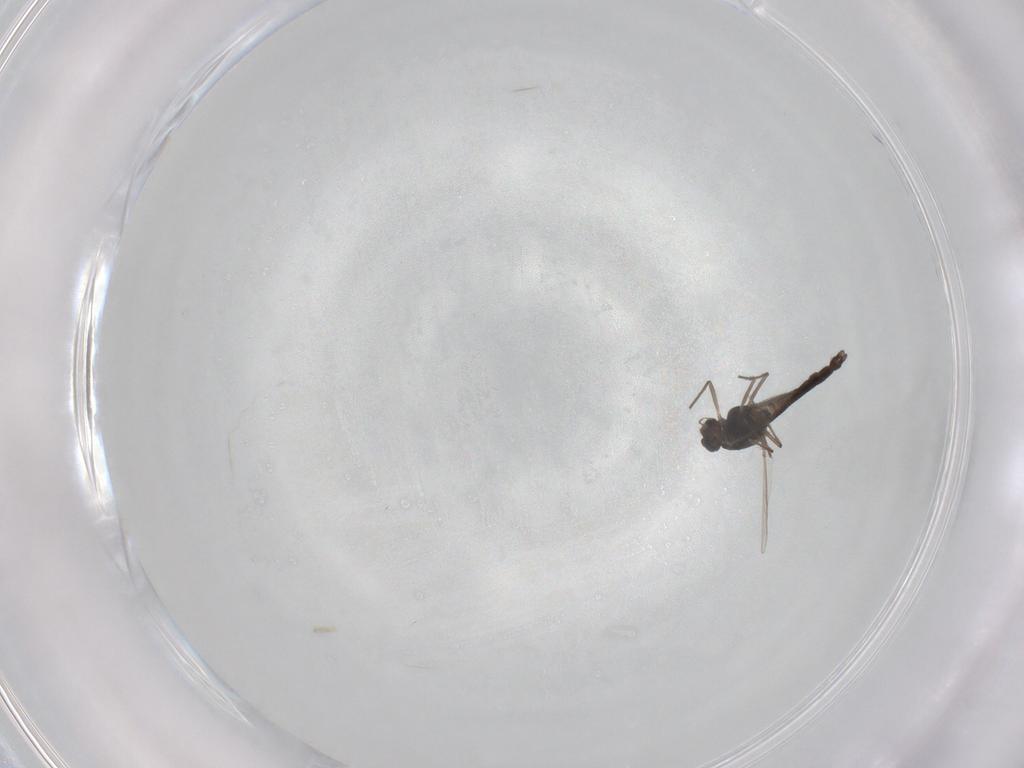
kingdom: Animalia
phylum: Arthropoda
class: Insecta
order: Diptera
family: Chironomidae
